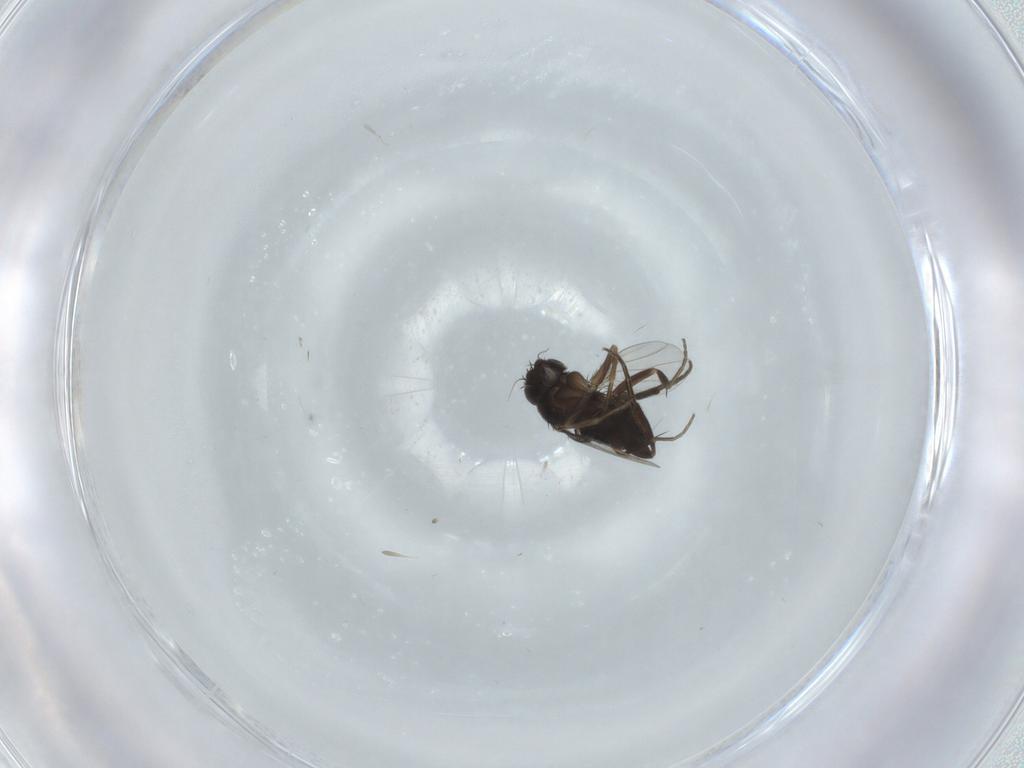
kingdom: Animalia
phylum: Arthropoda
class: Insecta
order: Diptera
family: Phoridae
